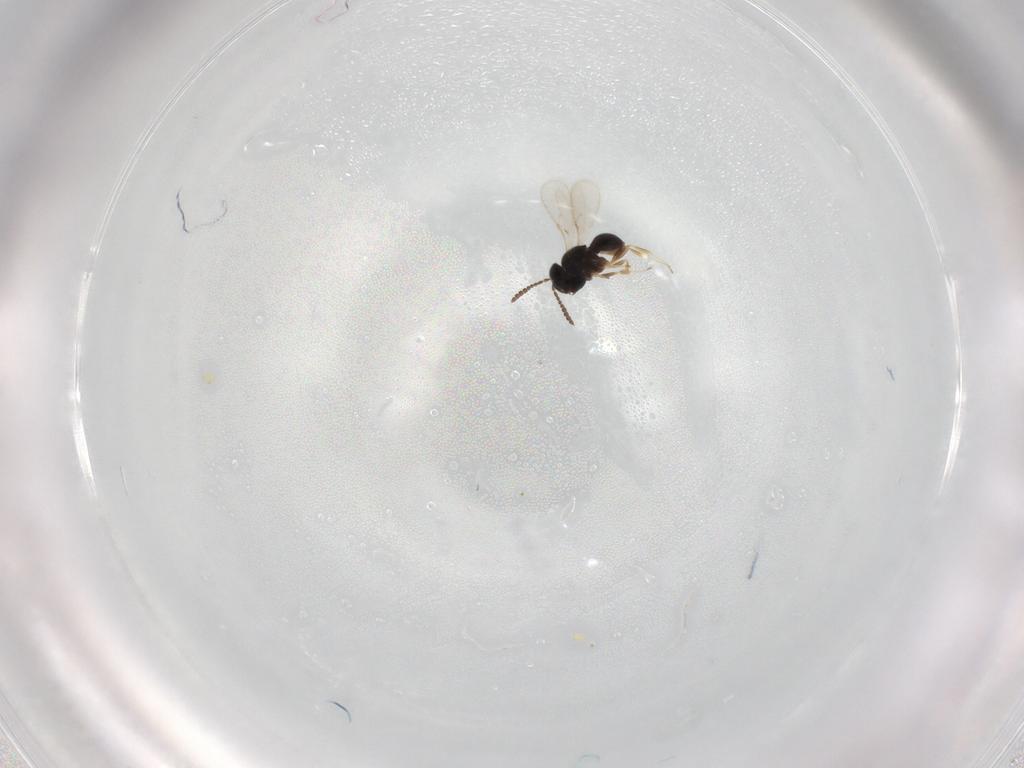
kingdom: Animalia
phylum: Arthropoda
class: Insecta
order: Hymenoptera
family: Scelionidae
